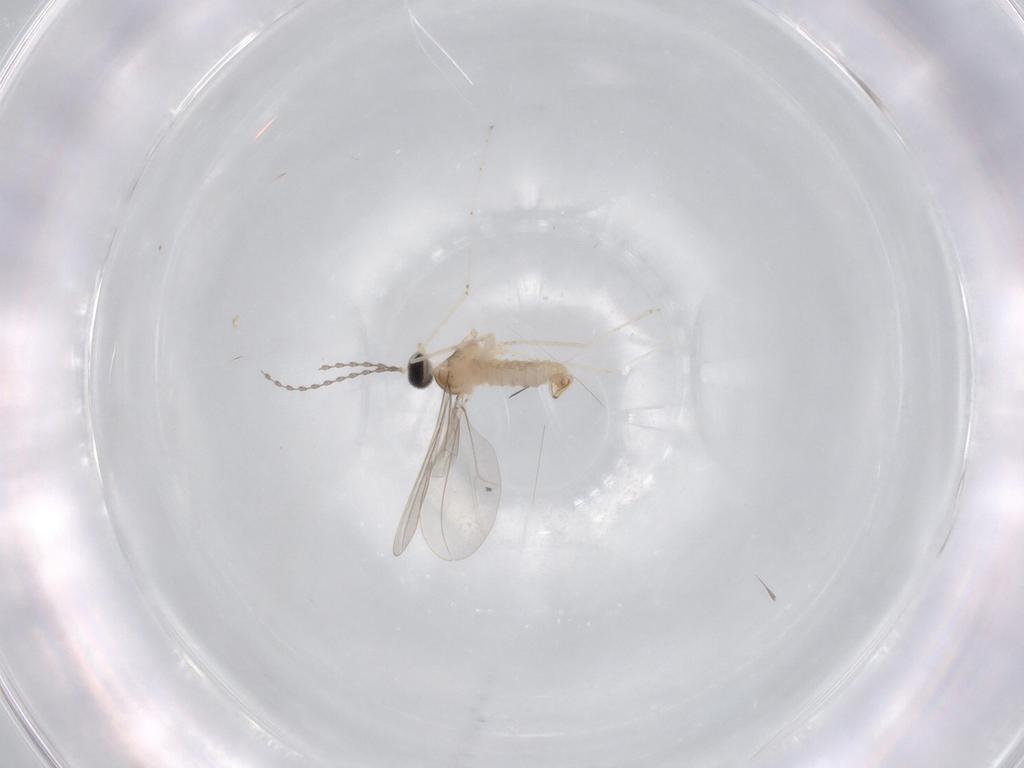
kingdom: Animalia
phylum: Arthropoda
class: Insecta
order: Diptera
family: Cecidomyiidae
